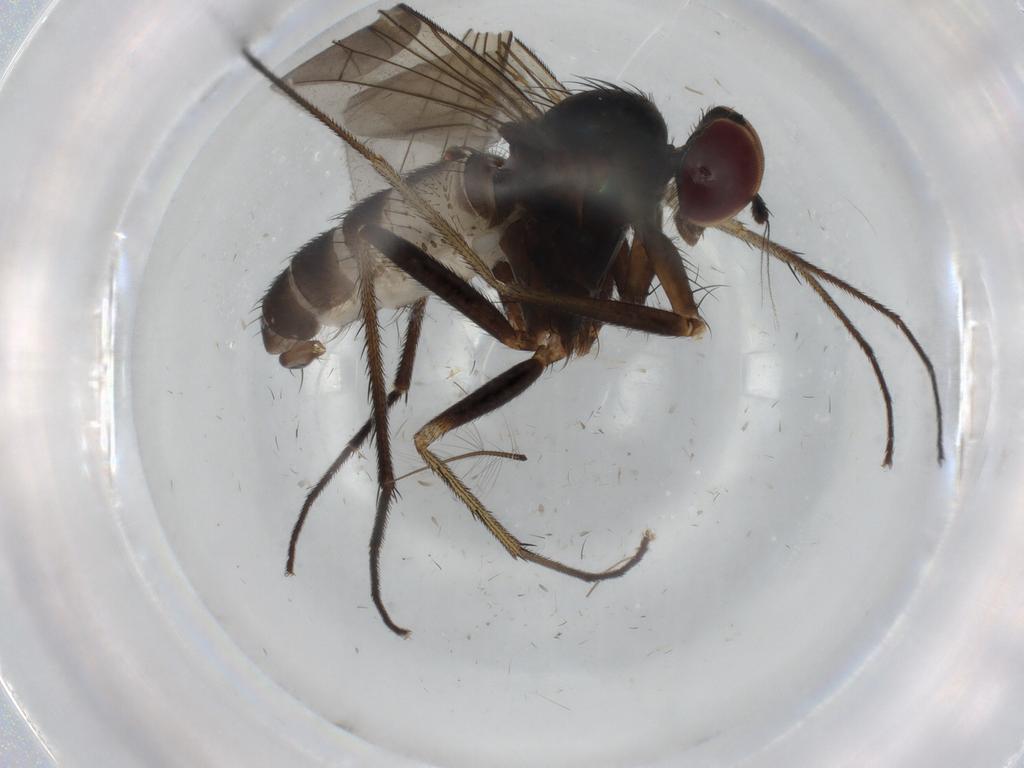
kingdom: Animalia
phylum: Arthropoda
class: Insecta
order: Diptera
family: Dolichopodidae
